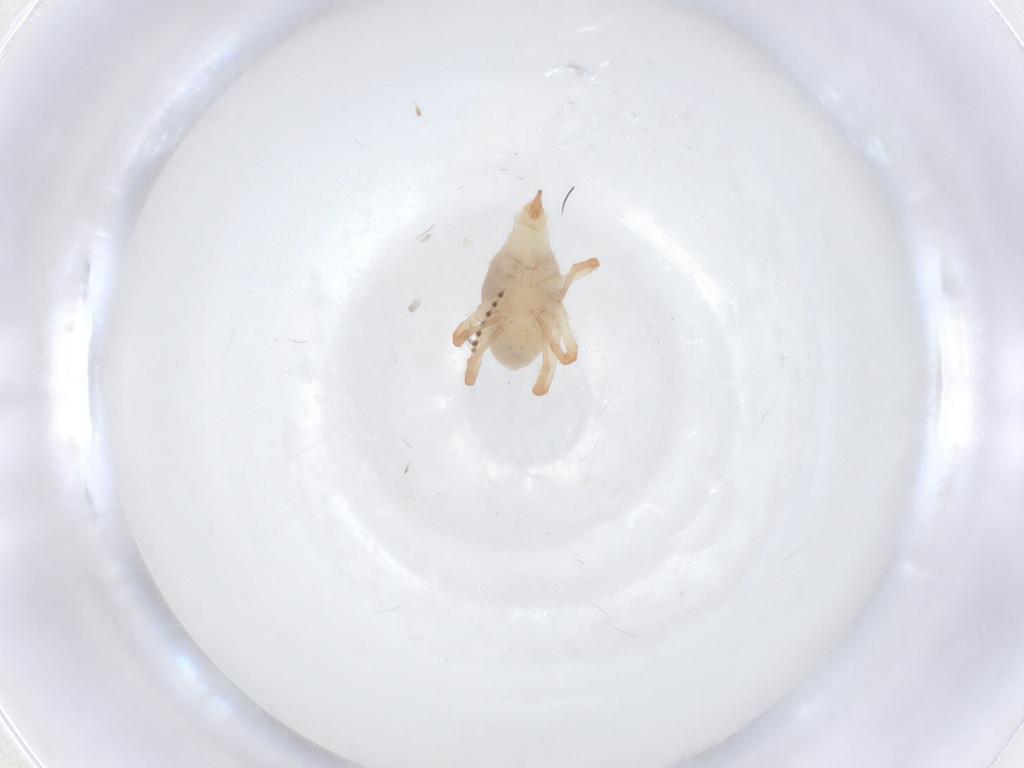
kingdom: Animalia
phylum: Arthropoda
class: Arachnida
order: Trombidiformes
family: Bdellidae
